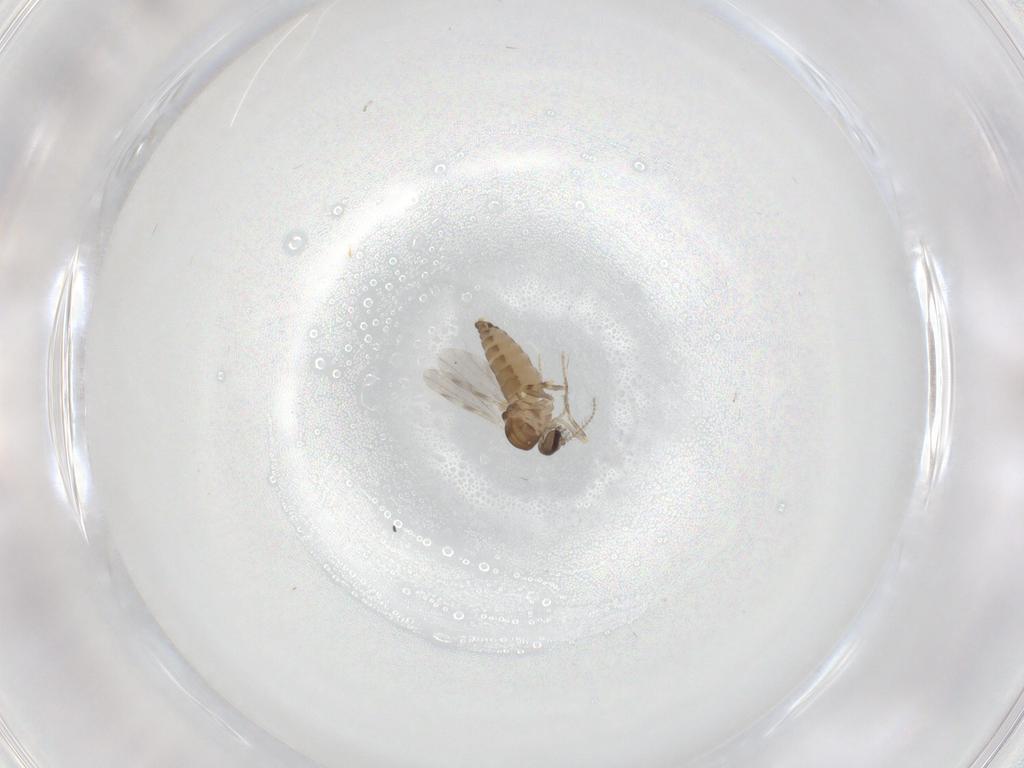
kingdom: Animalia
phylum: Arthropoda
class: Insecta
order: Diptera
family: Ceratopogonidae
